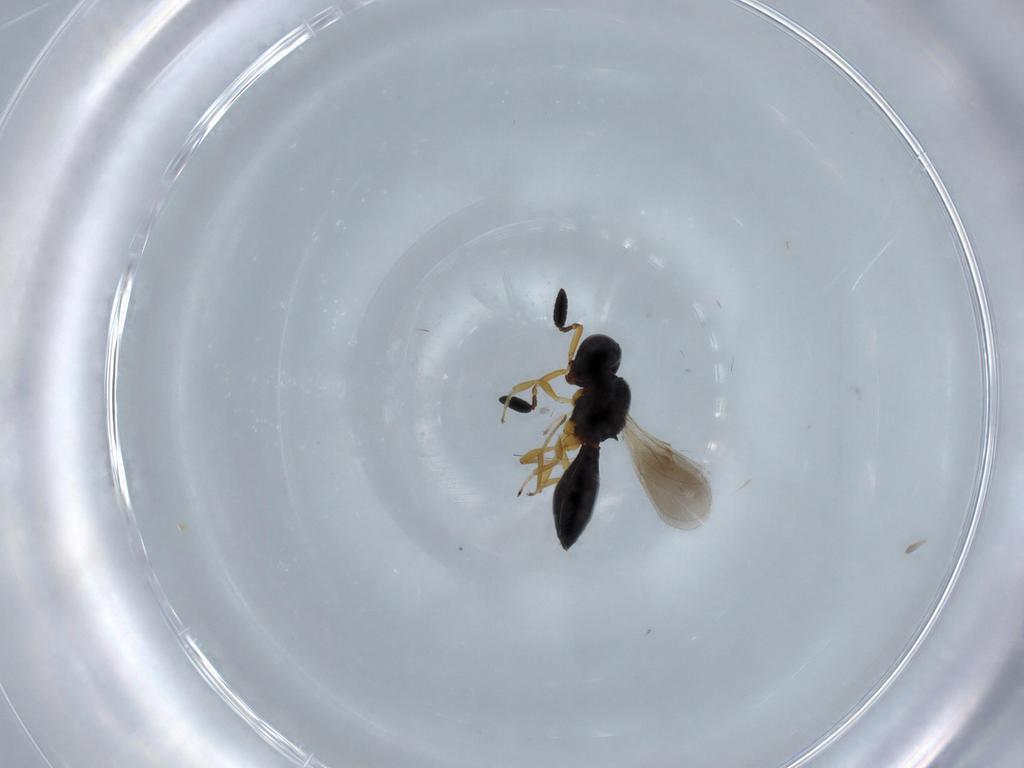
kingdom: Animalia
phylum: Arthropoda
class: Insecta
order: Hymenoptera
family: Scelionidae
